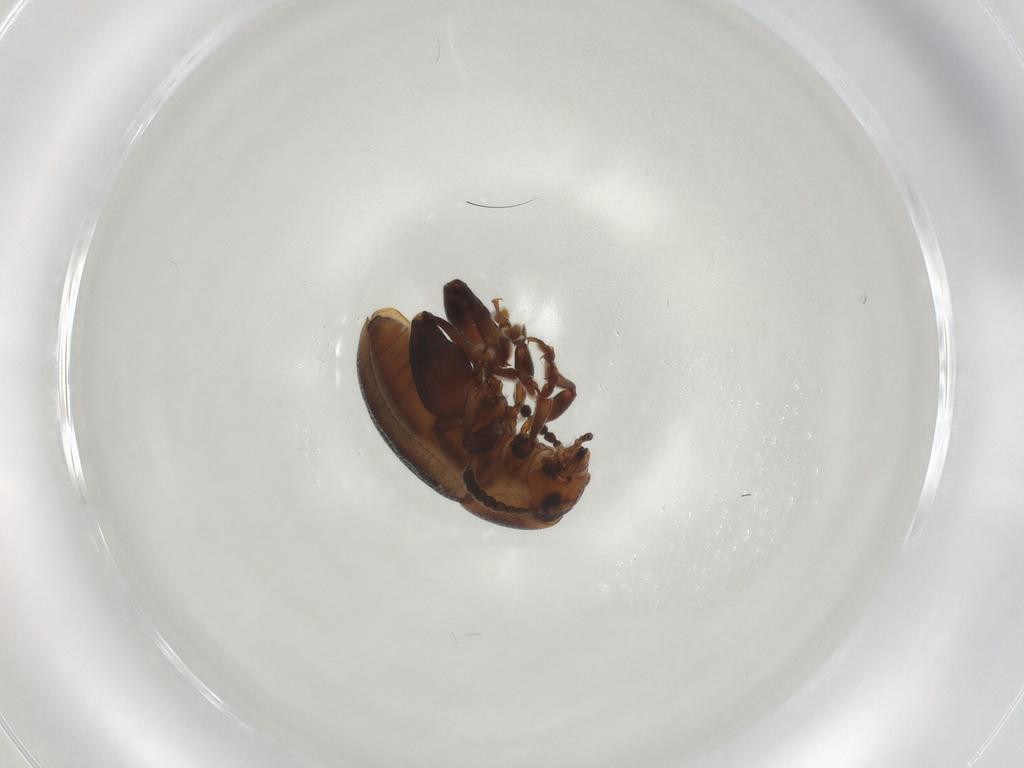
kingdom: Animalia
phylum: Arthropoda
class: Insecta
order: Coleoptera
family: Chrysomelidae
